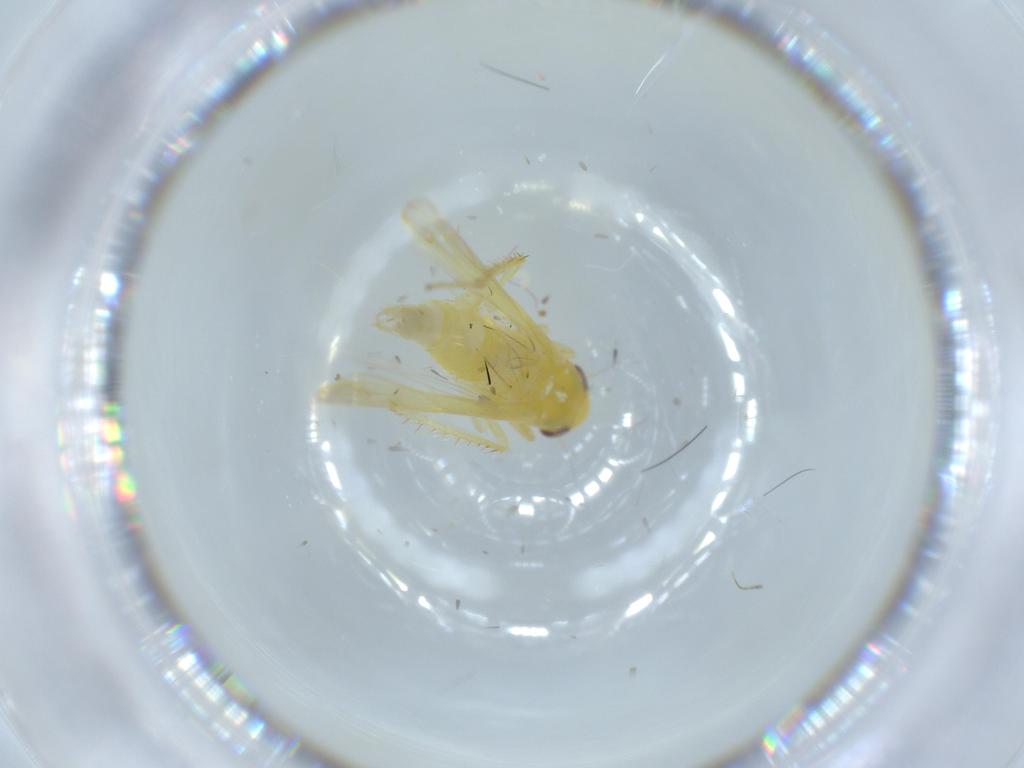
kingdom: Animalia
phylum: Arthropoda
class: Insecta
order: Hemiptera
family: Cicadellidae
